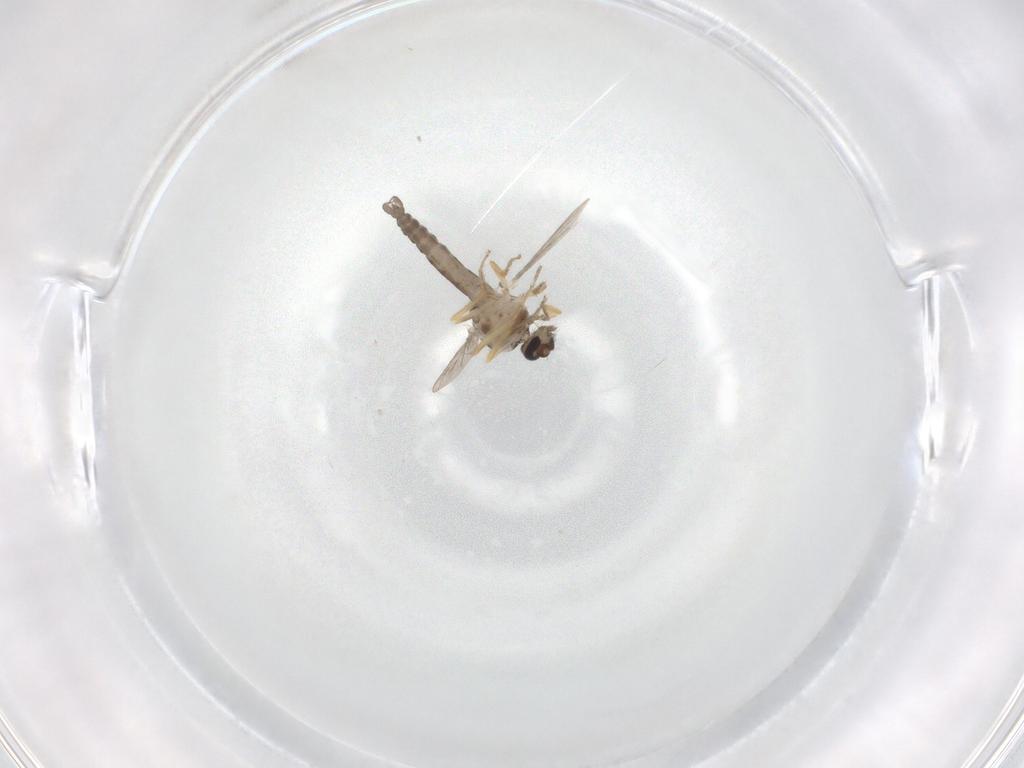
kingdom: Animalia
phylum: Arthropoda
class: Insecta
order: Diptera
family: Ceratopogonidae
